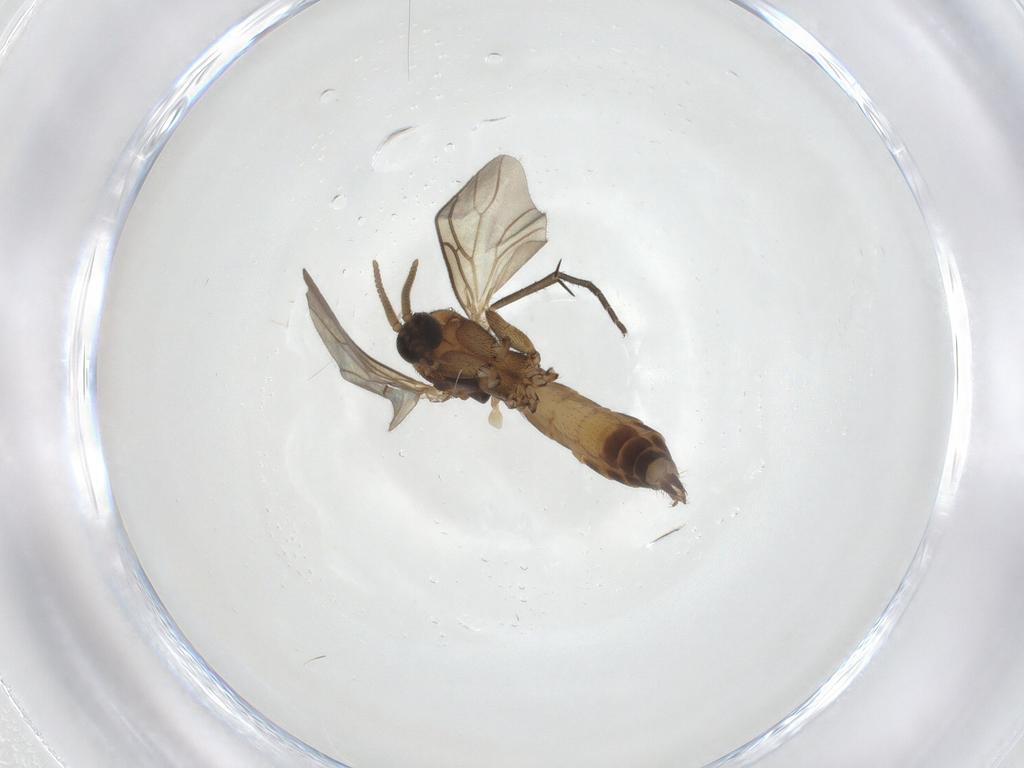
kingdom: Animalia
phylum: Arthropoda
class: Insecta
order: Diptera
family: Mycetophilidae
